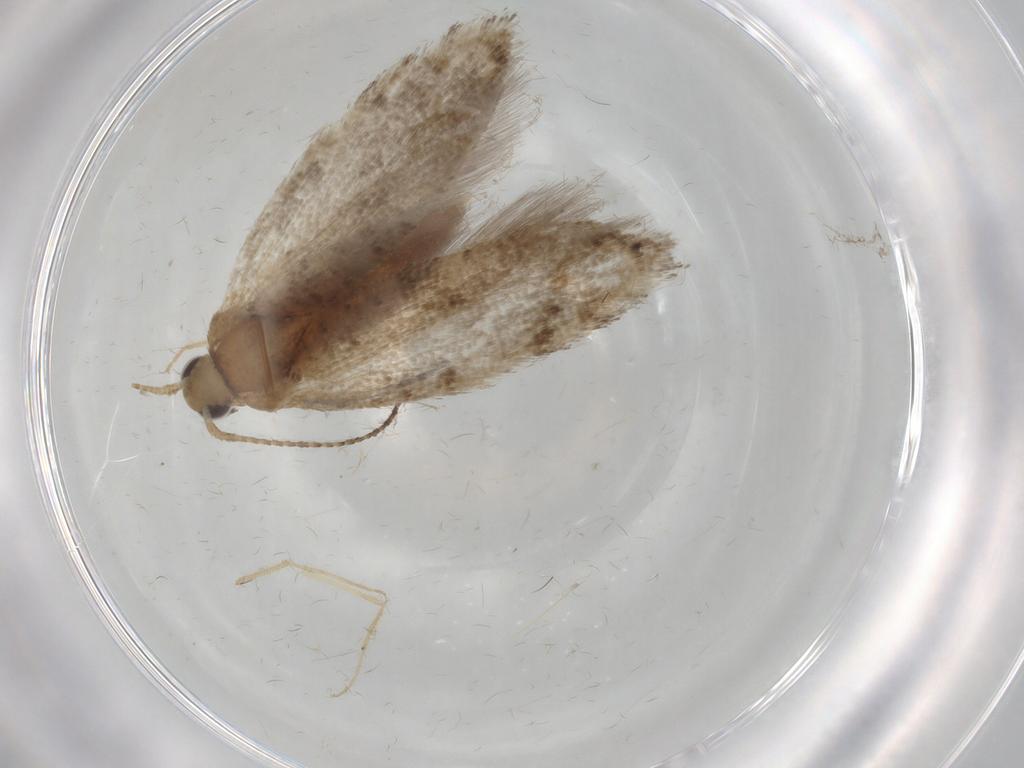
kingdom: Animalia
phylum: Arthropoda
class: Insecta
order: Lepidoptera
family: Plutellidae
